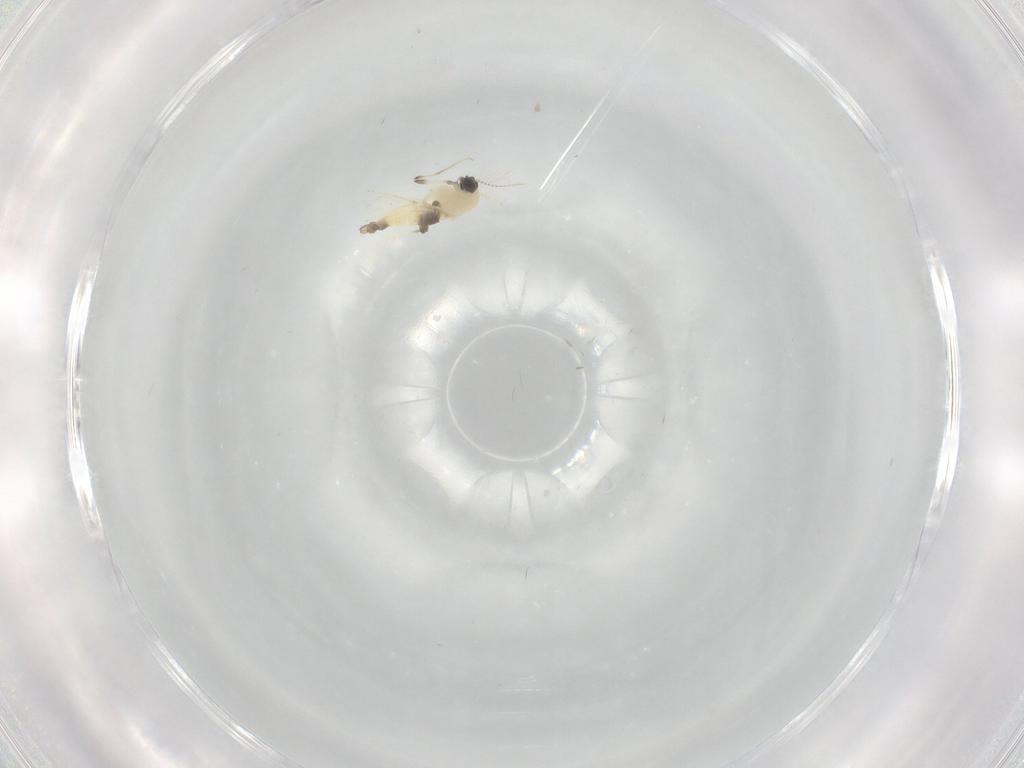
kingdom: Animalia
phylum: Arthropoda
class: Insecta
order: Diptera
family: Chironomidae
